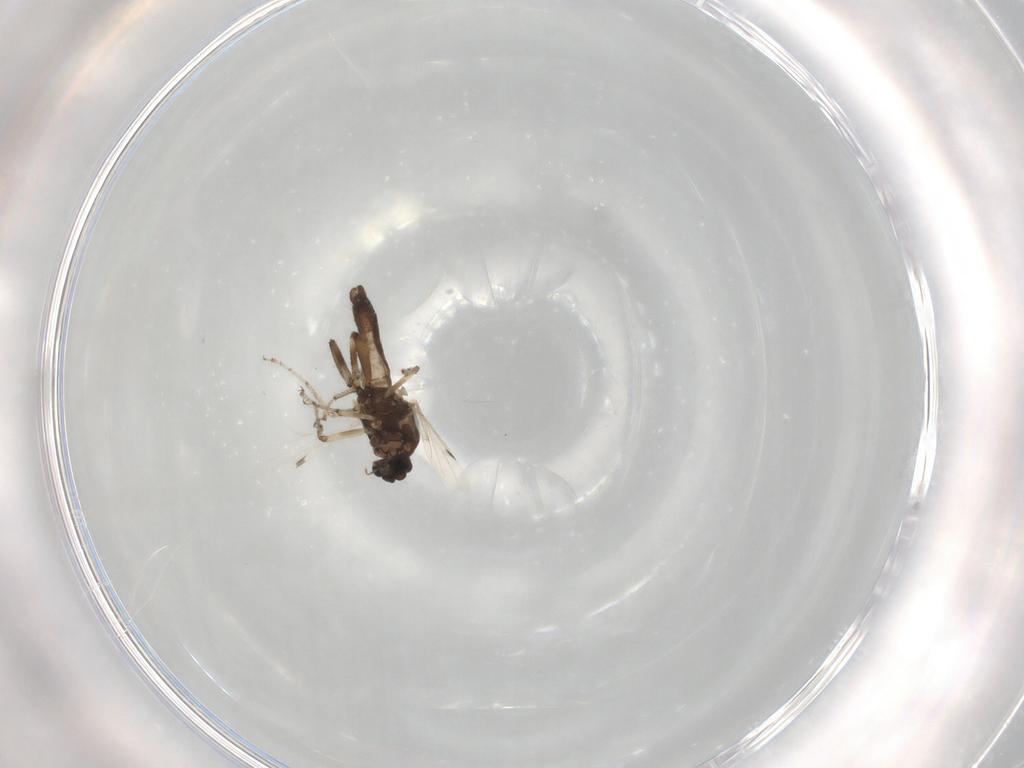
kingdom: Animalia
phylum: Arthropoda
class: Insecta
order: Diptera
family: Ceratopogonidae
